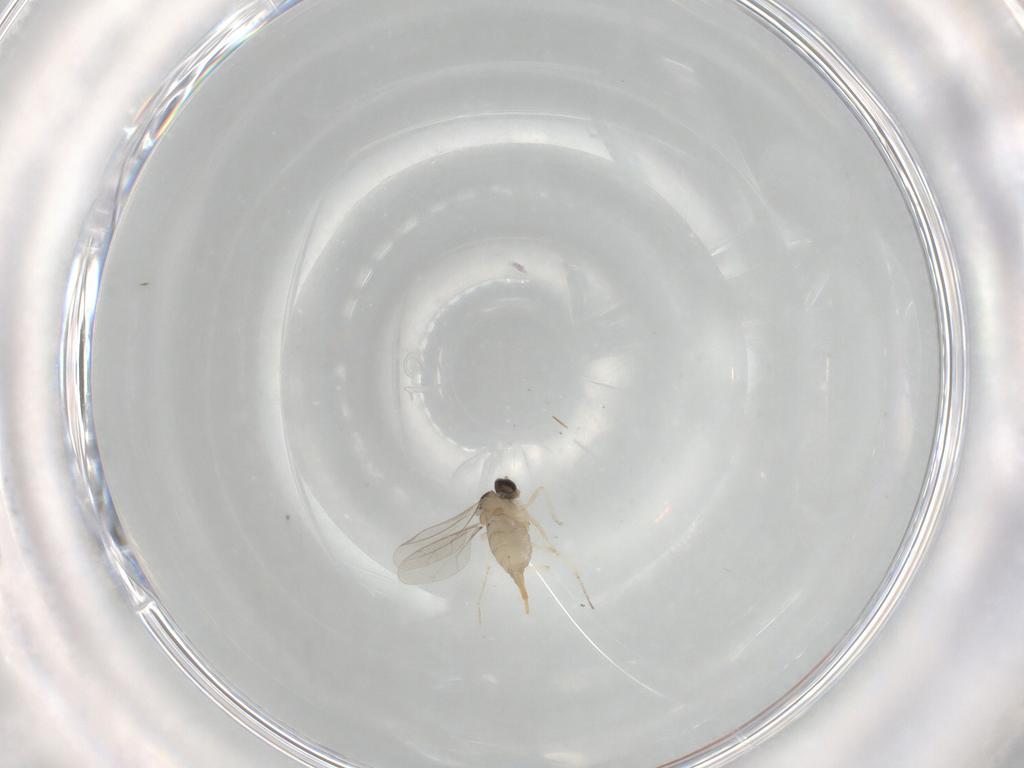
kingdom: Animalia
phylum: Arthropoda
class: Insecta
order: Diptera
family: Cecidomyiidae
